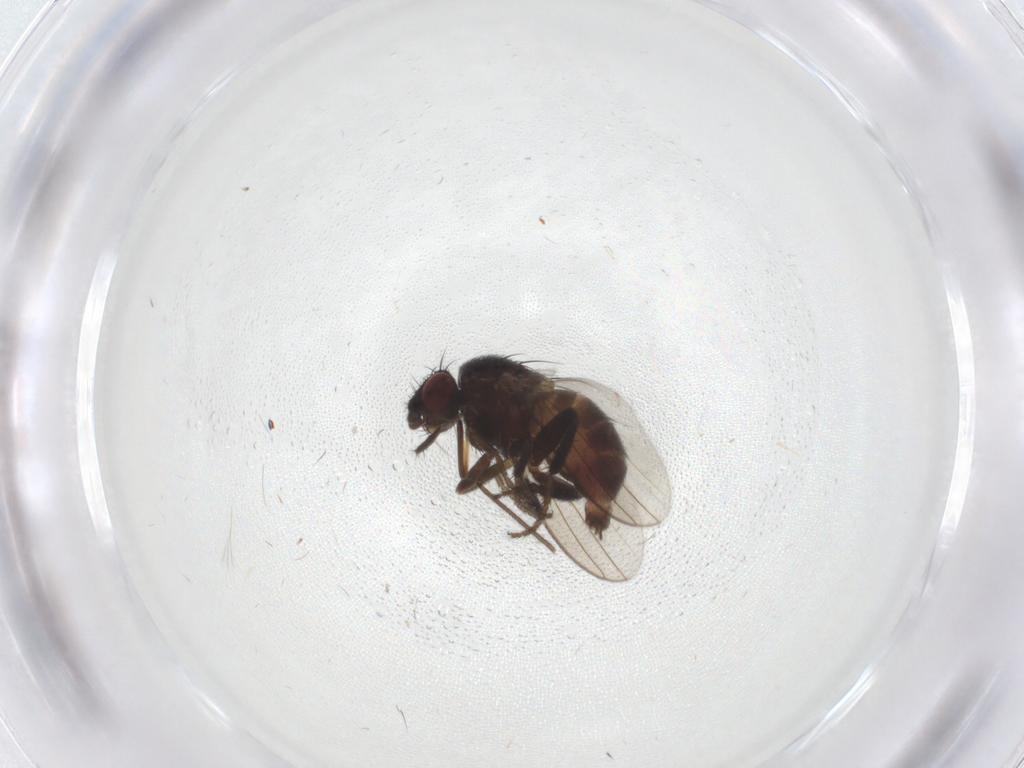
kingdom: Animalia
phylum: Arthropoda
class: Insecta
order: Diptera
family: Milichiidae
